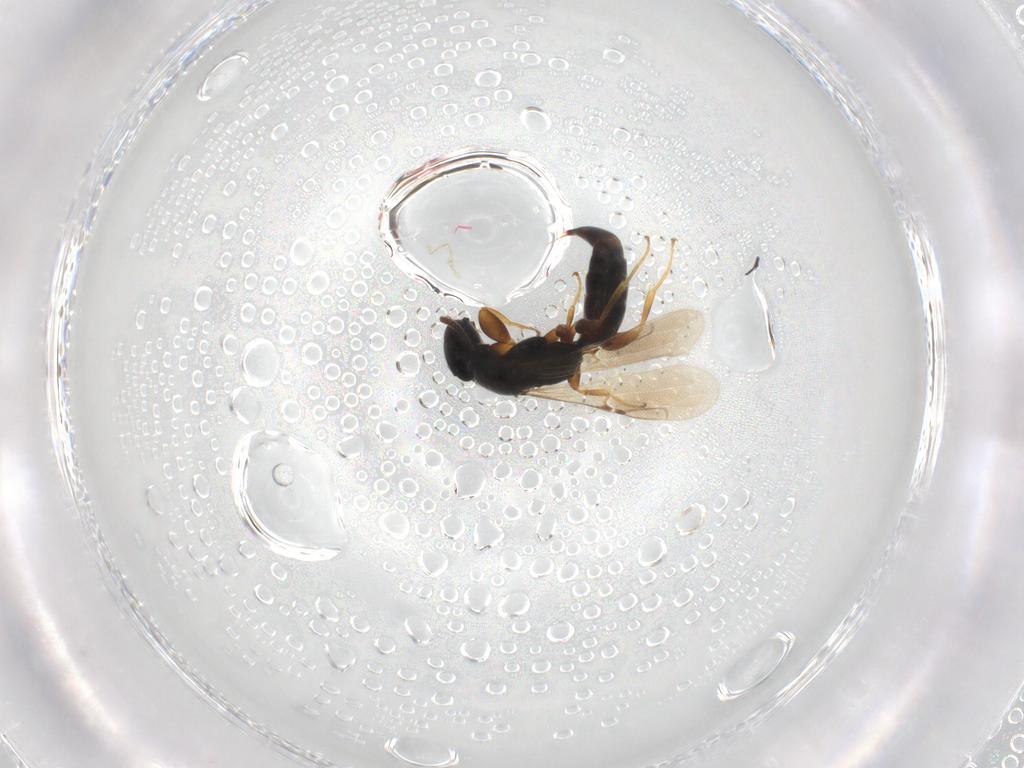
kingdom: Animalia
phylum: Arthropoda
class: Insecta
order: Hymenoptera
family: Bethylidae
